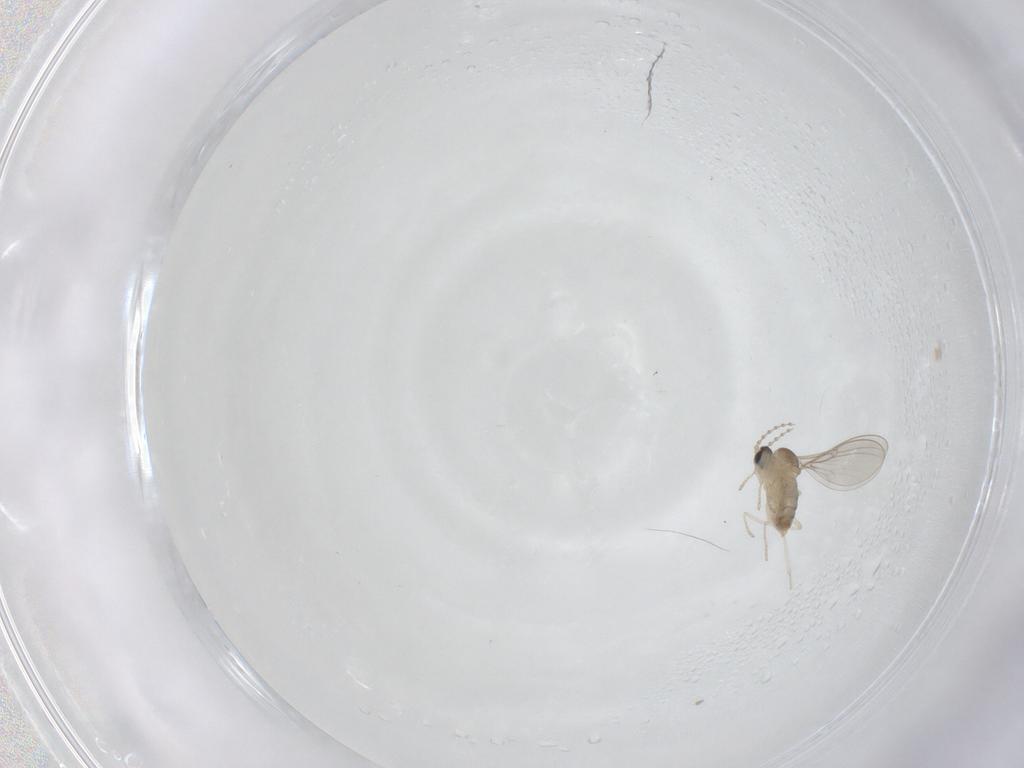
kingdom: Animalia
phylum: Arthropoda
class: Insecta
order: Diptera
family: Cecidomyiidae
